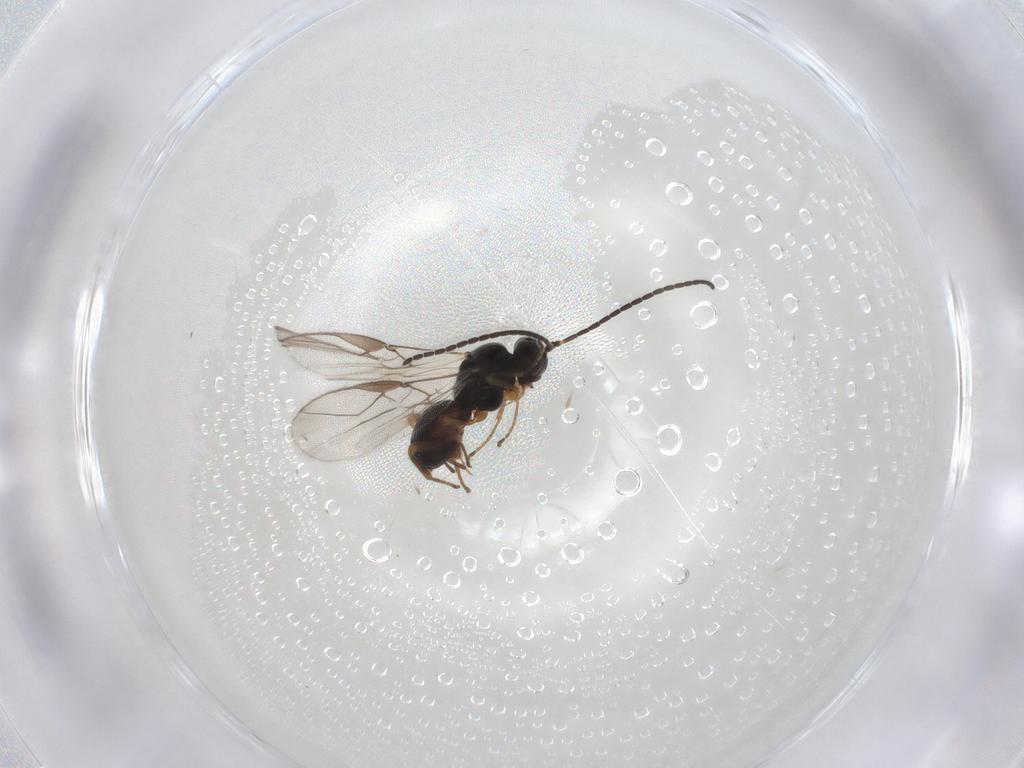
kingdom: Animalia
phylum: Arthropoda
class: Insecta
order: Hymenoptera
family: Braconidae
